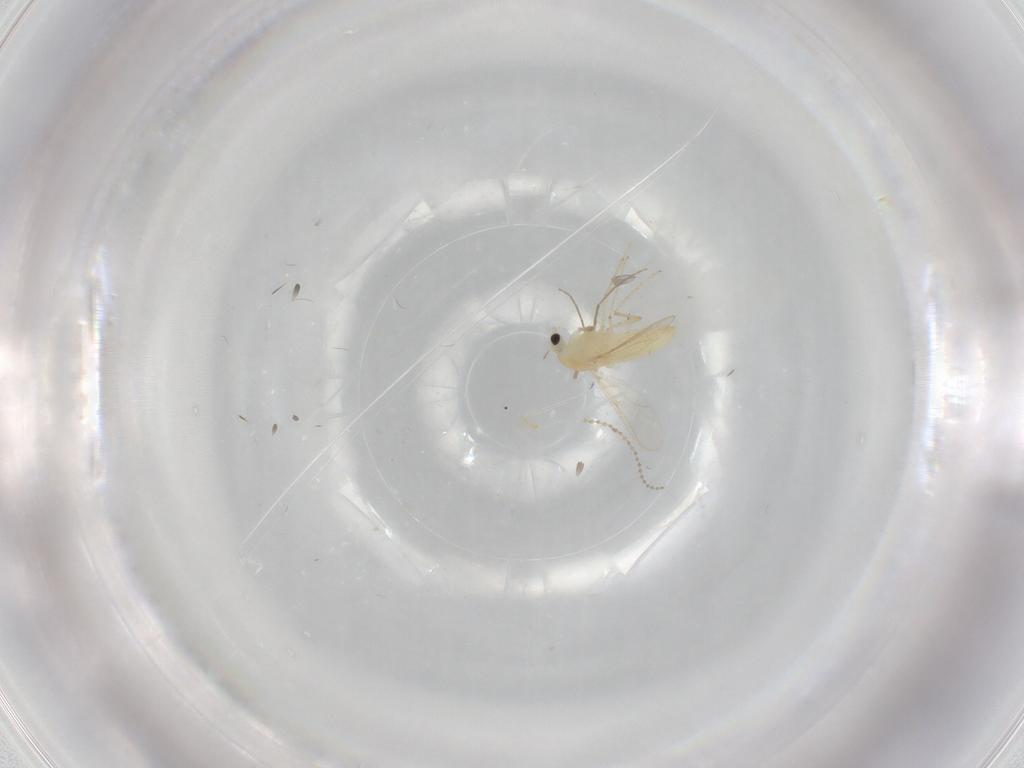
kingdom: Animalia
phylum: Arthropoda
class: Insecta
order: Diptera
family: Chironomidae
